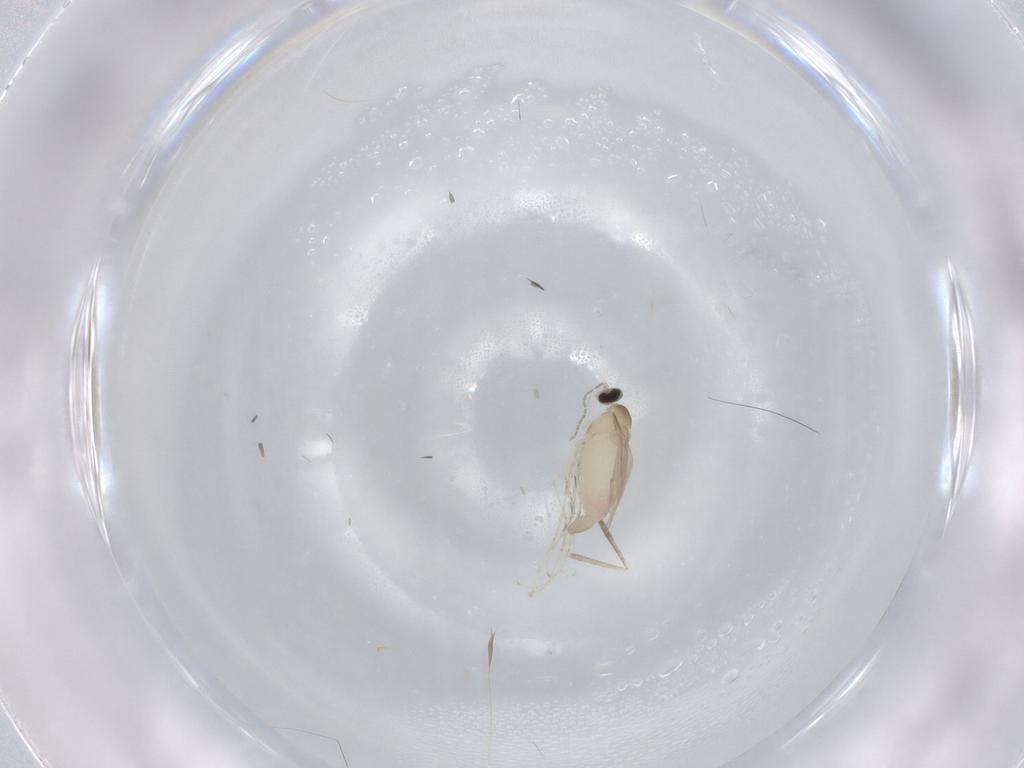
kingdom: Animalia
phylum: Arthropoda
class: Insecta
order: Diptera
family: Cecidomyiidae
